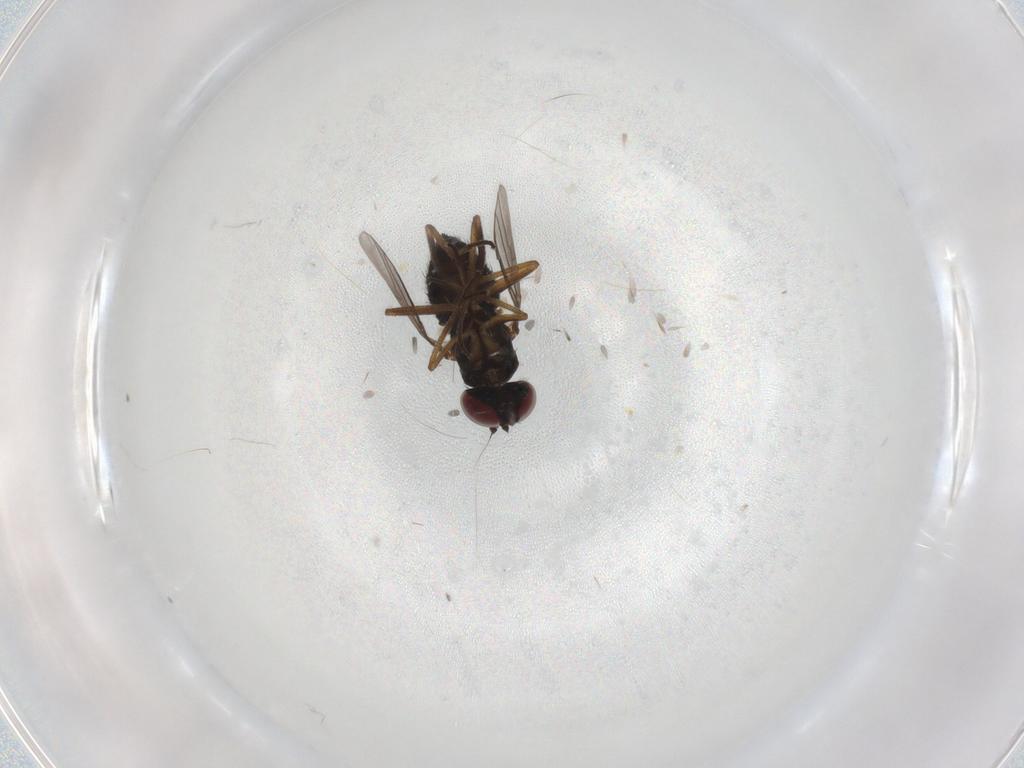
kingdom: Animalia
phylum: Arthropoda
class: Insecta
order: Diptera
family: Dolichopodidae
